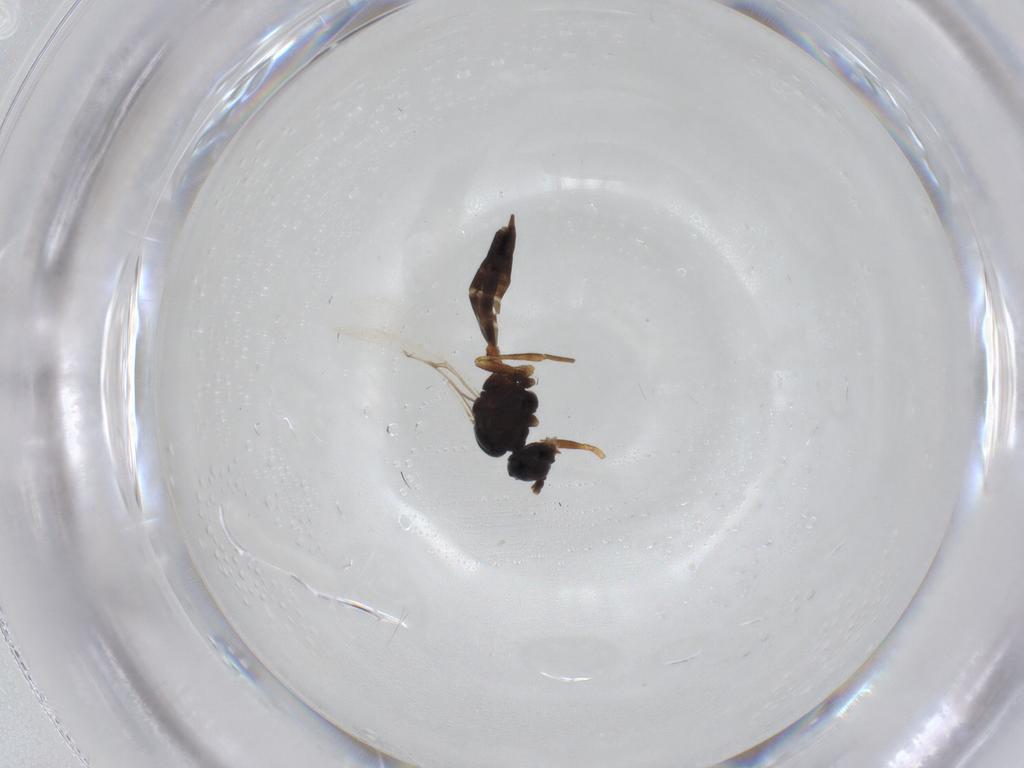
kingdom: Animalia
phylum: Arthropoda
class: Insecta
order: Hymenoptera
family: Braconidae
